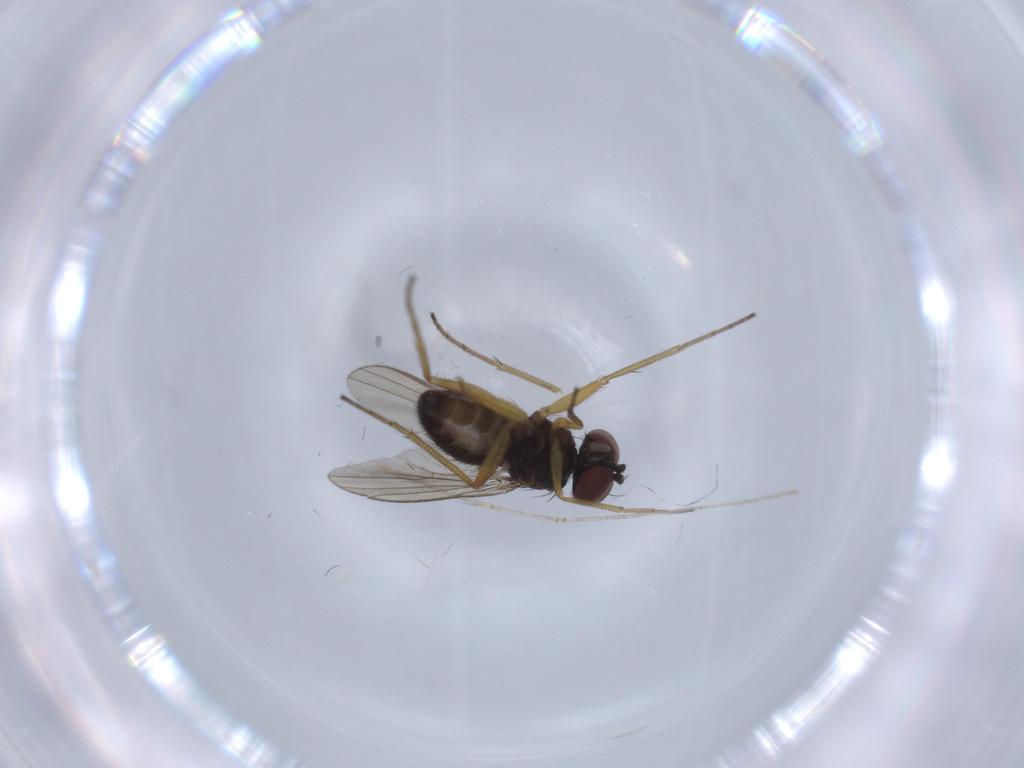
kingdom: Animalia
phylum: Arthropoda
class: Insecta
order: Diptera
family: Dolichopodidae
